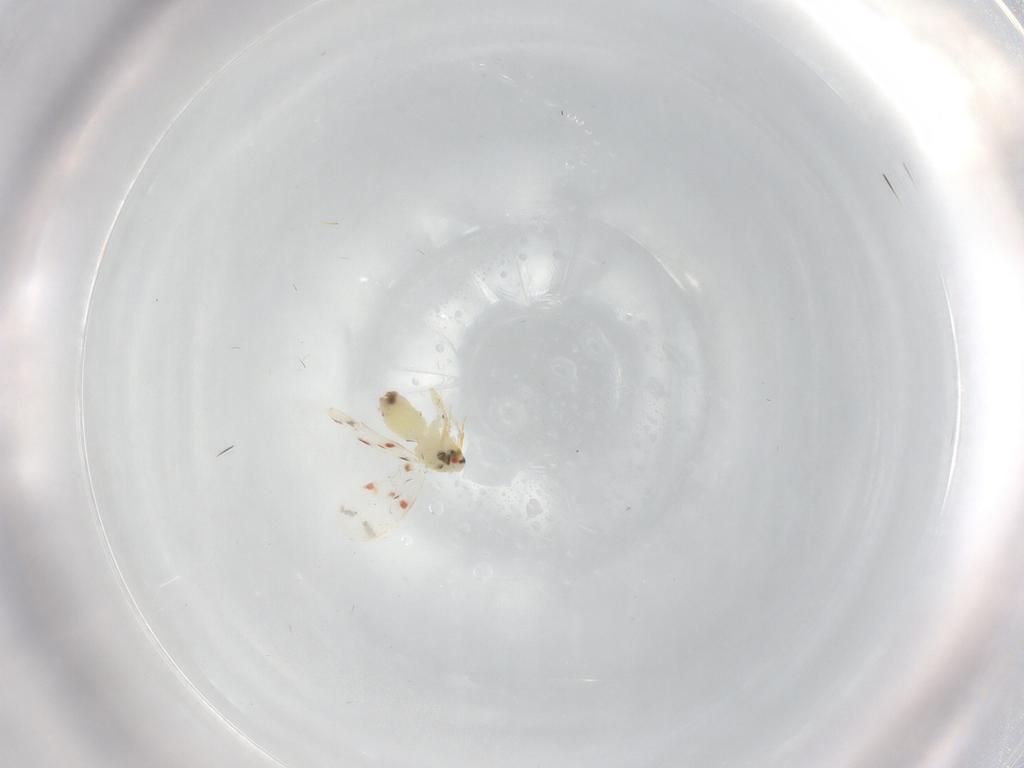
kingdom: Animalia
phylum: Arthropoda
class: Insecta
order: Hemiptera
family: Aleyrodidae
